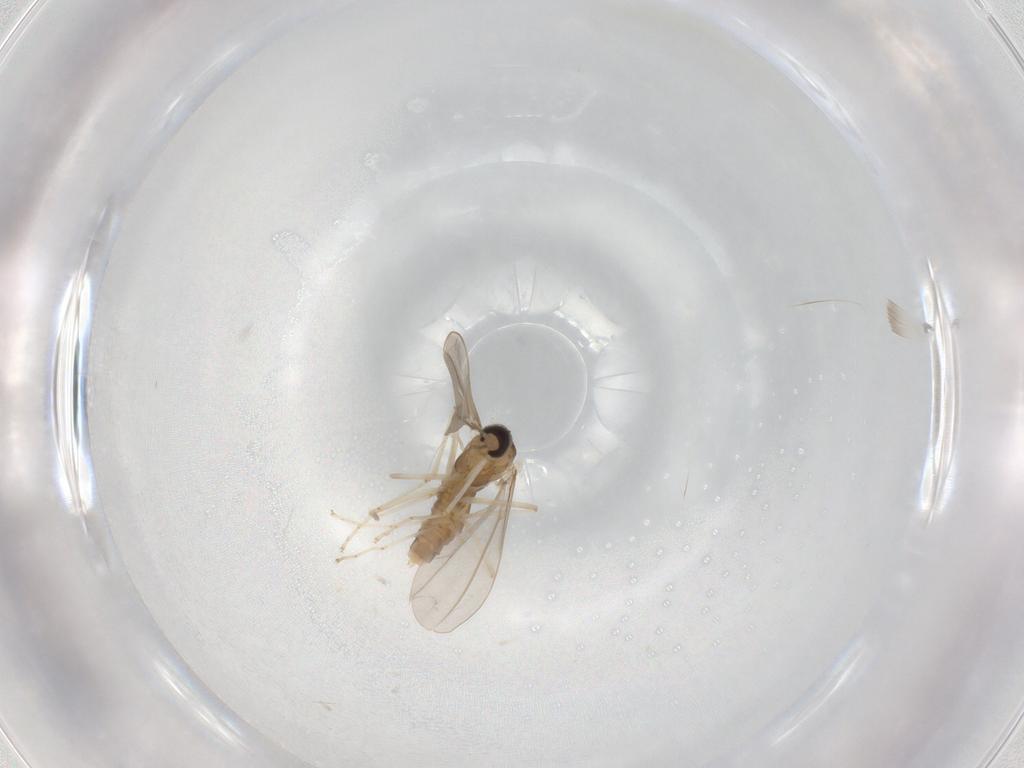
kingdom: Animalia
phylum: Arthropoda
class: Insecta
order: Diptera
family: Cecidomyiidae
